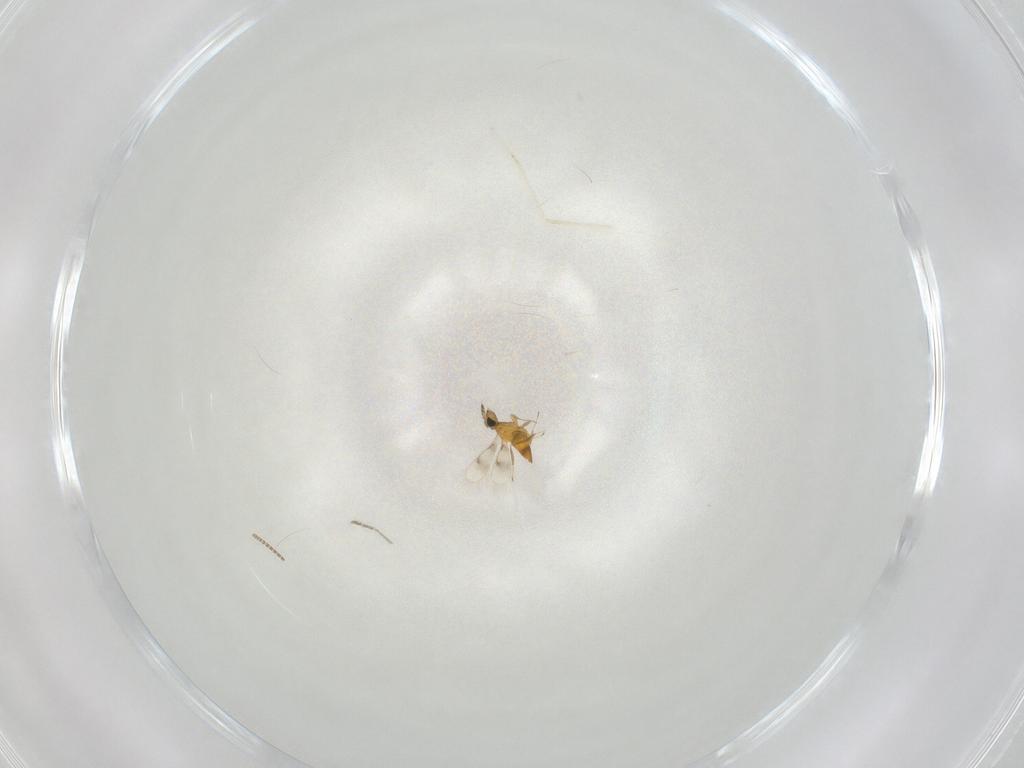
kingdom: Animalia
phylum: Arthropoda
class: Insecta
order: Hymenoptera
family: Aphelinidae
